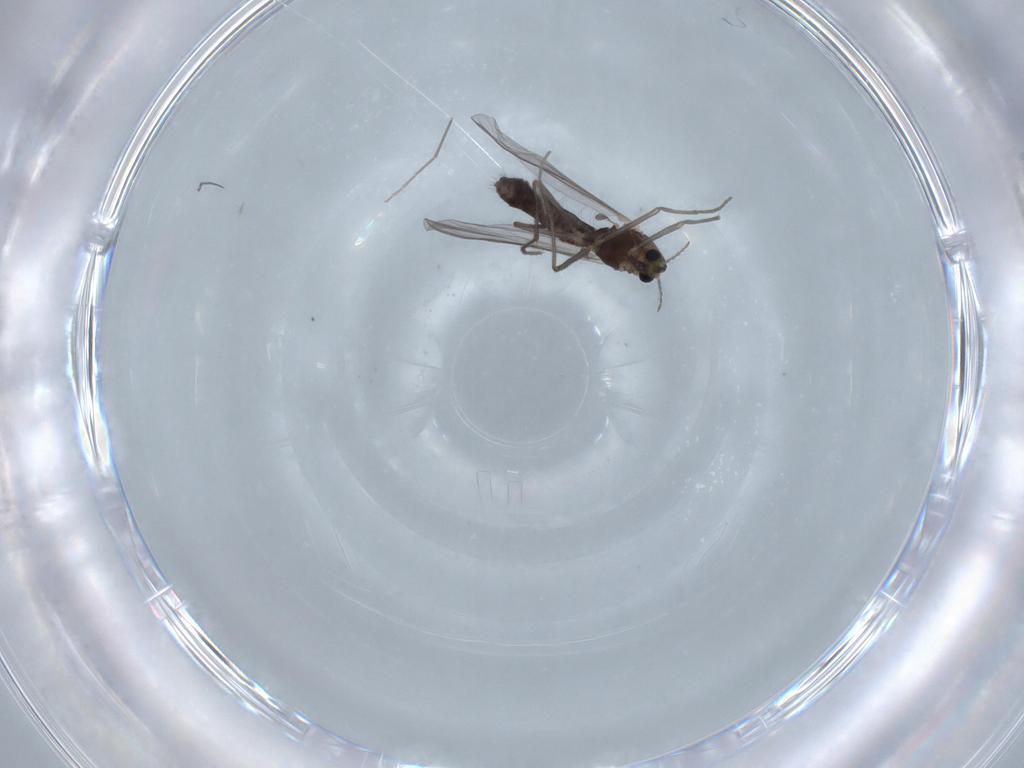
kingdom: Animalia
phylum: Arthropoda
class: Insecta
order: Diptera
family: Chironomidae
